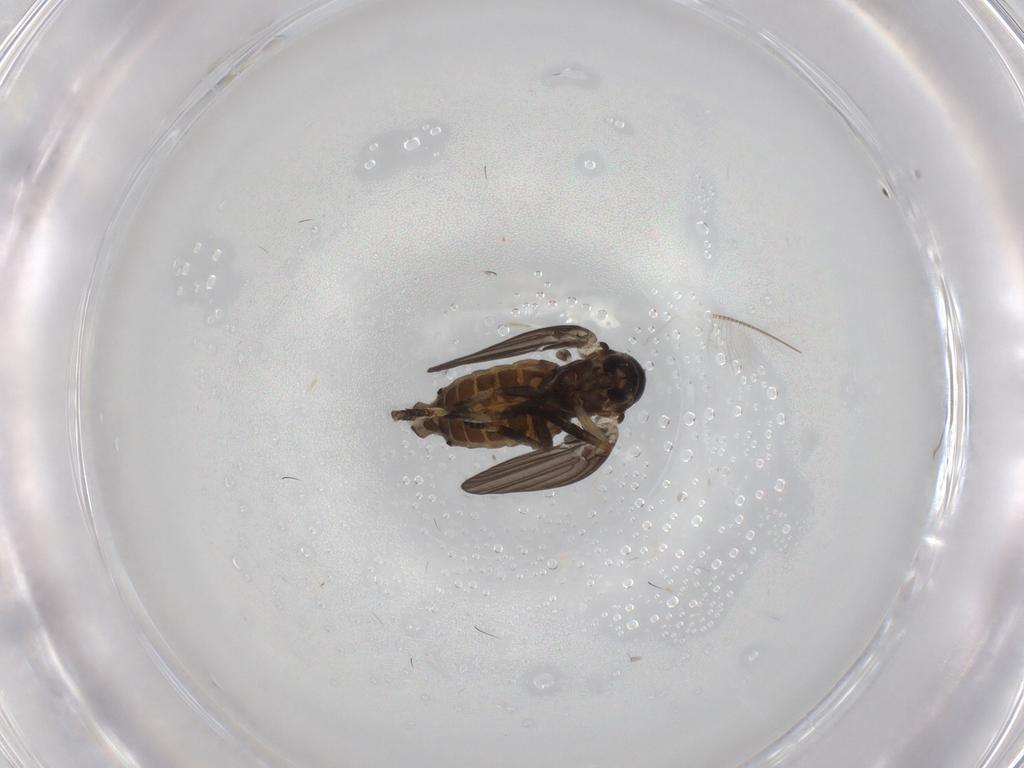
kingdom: Animalia
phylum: Arthropoda
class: Insecta
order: Diptera
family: Psychodidae
